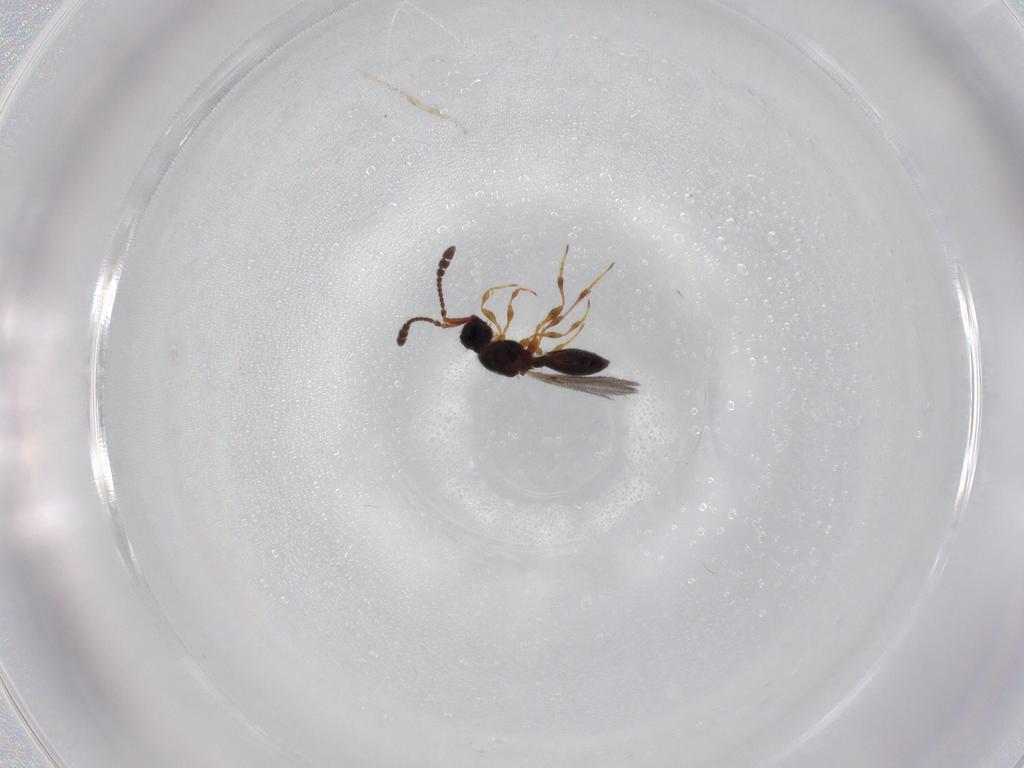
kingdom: Animalia
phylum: Arthropoda
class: Insecta
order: Hymenoptera
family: Diapriidae
